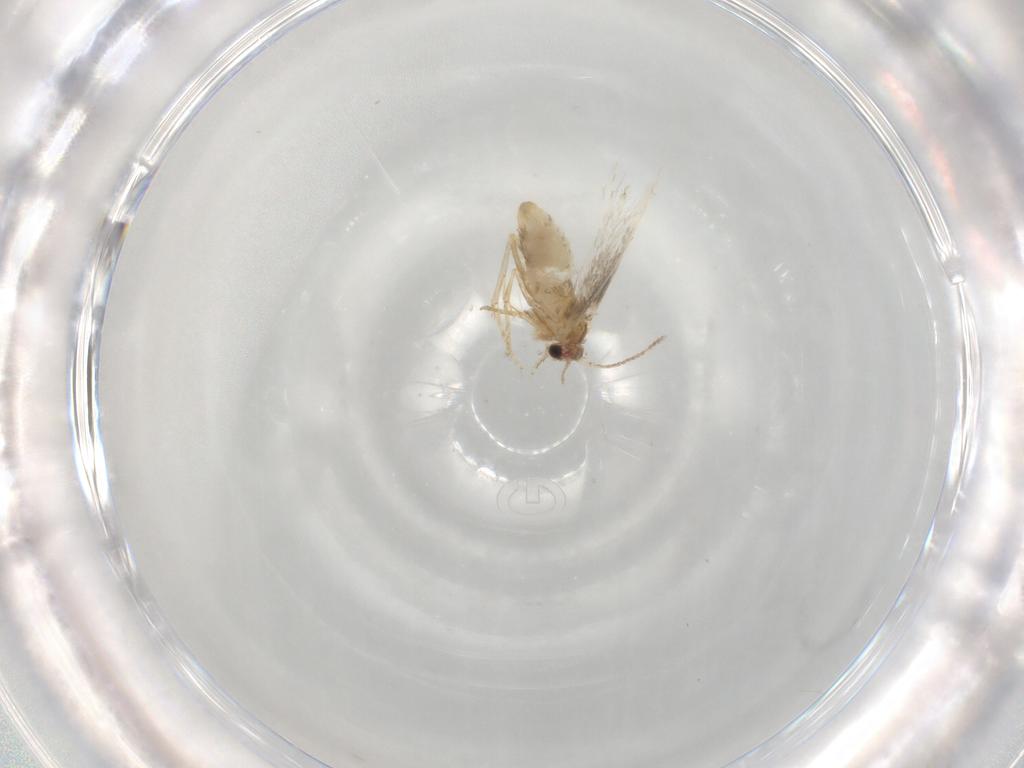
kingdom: Animalia
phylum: Arthropoda
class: Insecta
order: Lepidoptera
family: Nepticulidae
